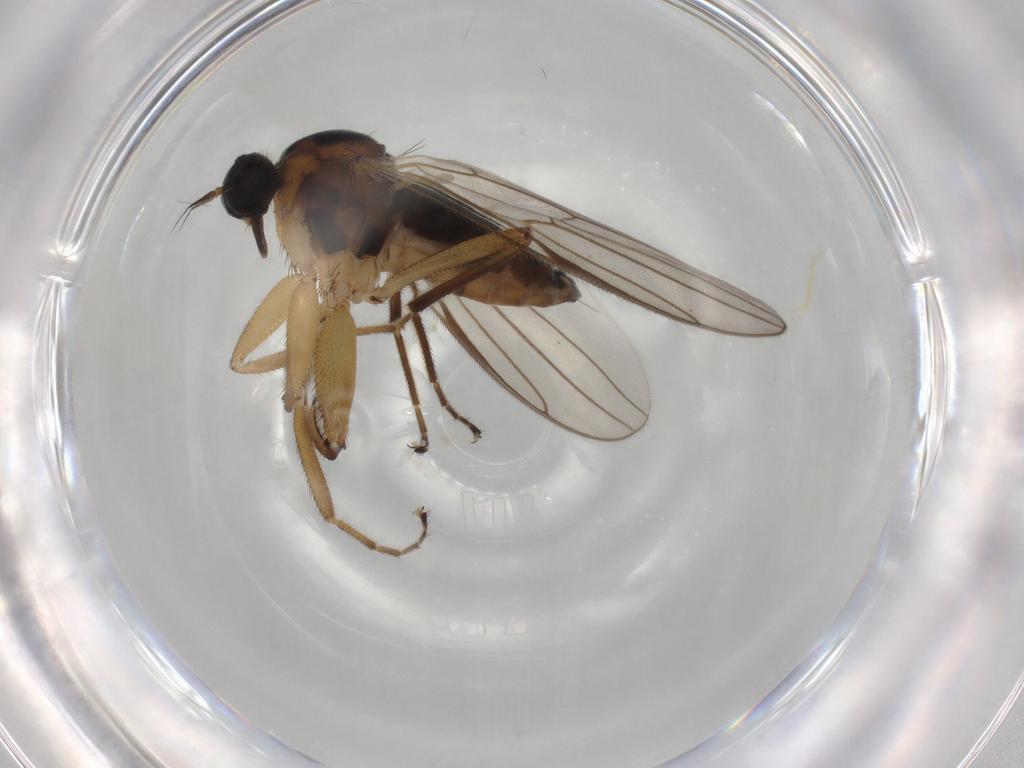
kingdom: Animalia
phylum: Arthropoda
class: Insecta
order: Diptera
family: Hybotidae
